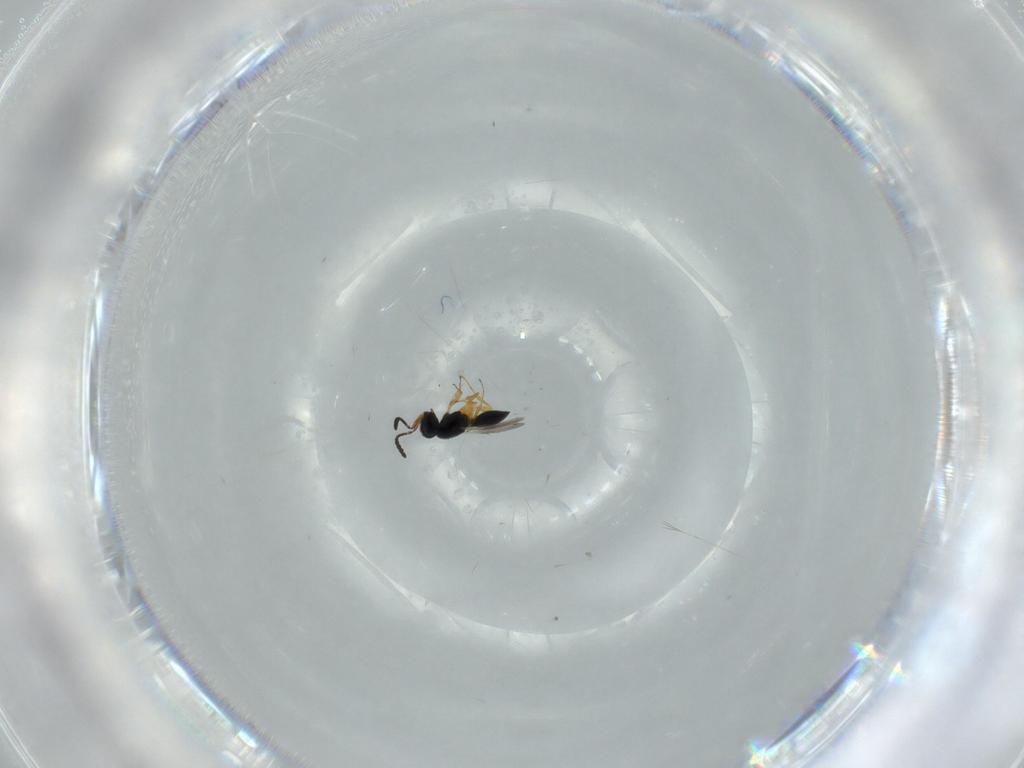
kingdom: Animalia
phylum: Arthropoda
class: Insecta
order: Hymenoptera
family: Scelionidae
